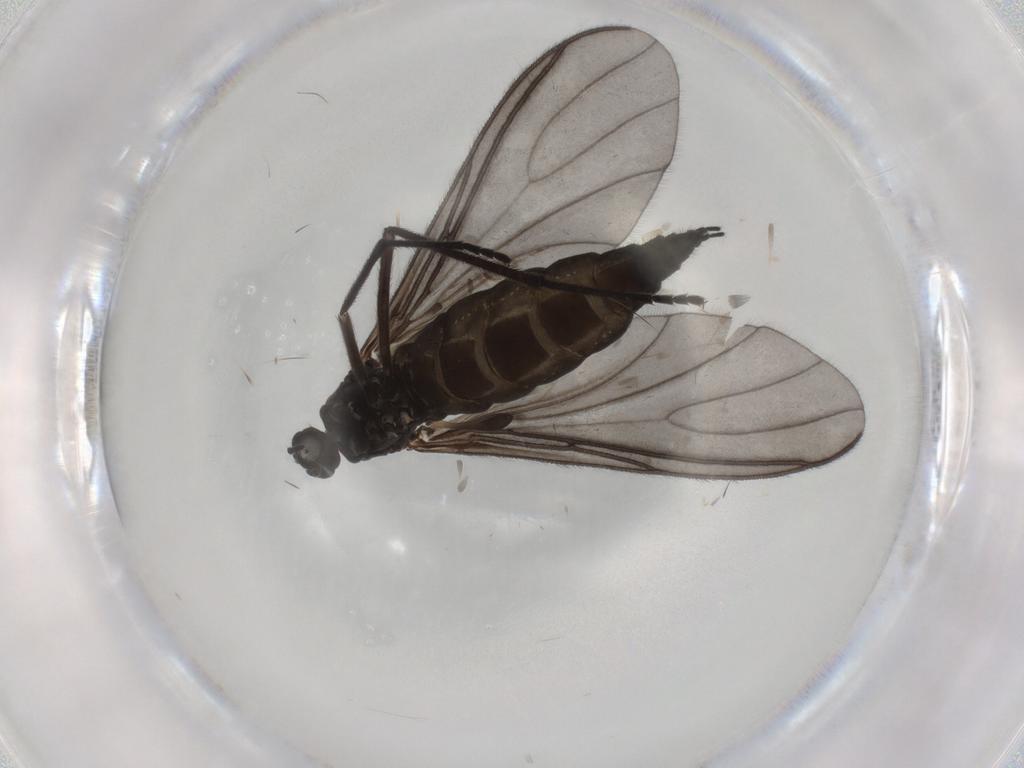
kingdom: Animalia
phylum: Arthropoda
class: Insecta
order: Diptera
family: Sciaridae
